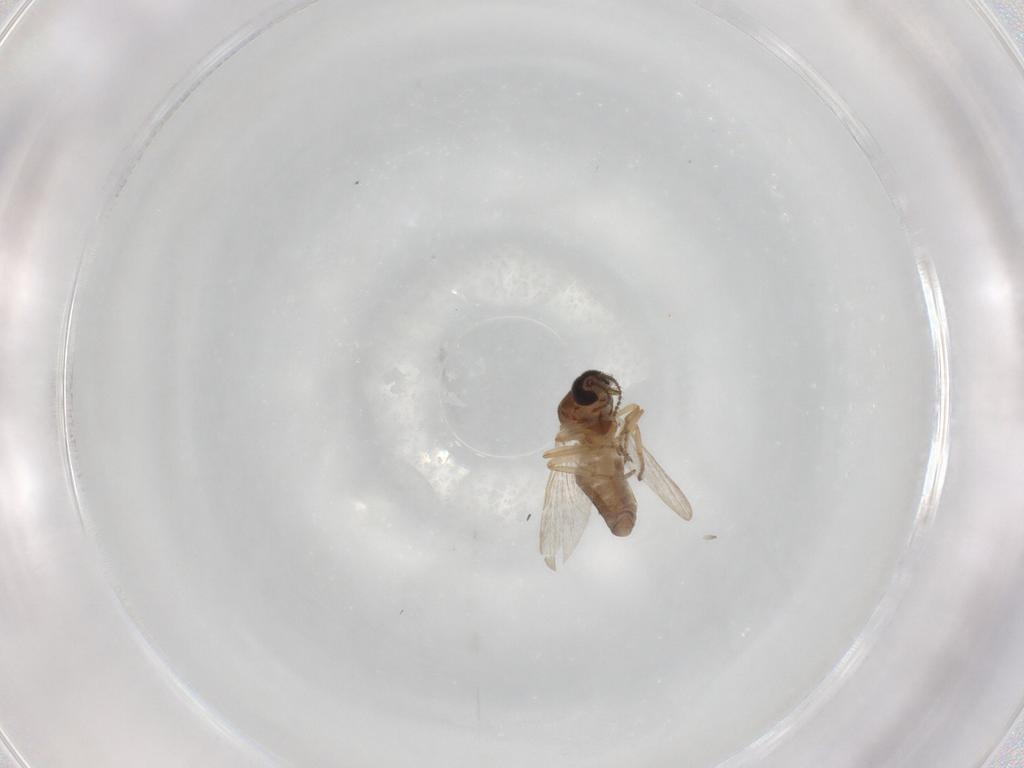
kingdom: Animalia
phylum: Arthropoda
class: Insecta
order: Diptera
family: Ceratopogonidae
